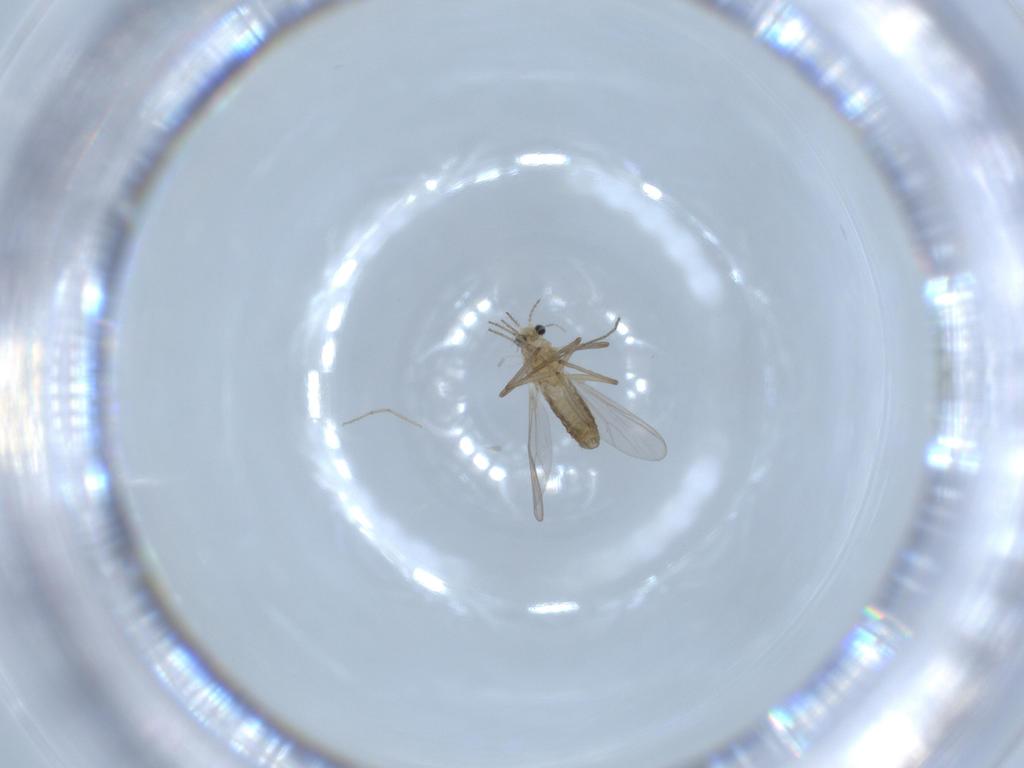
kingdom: Animalia
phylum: Arthropoda
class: Insecta
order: Diptera
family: Chironomidae
